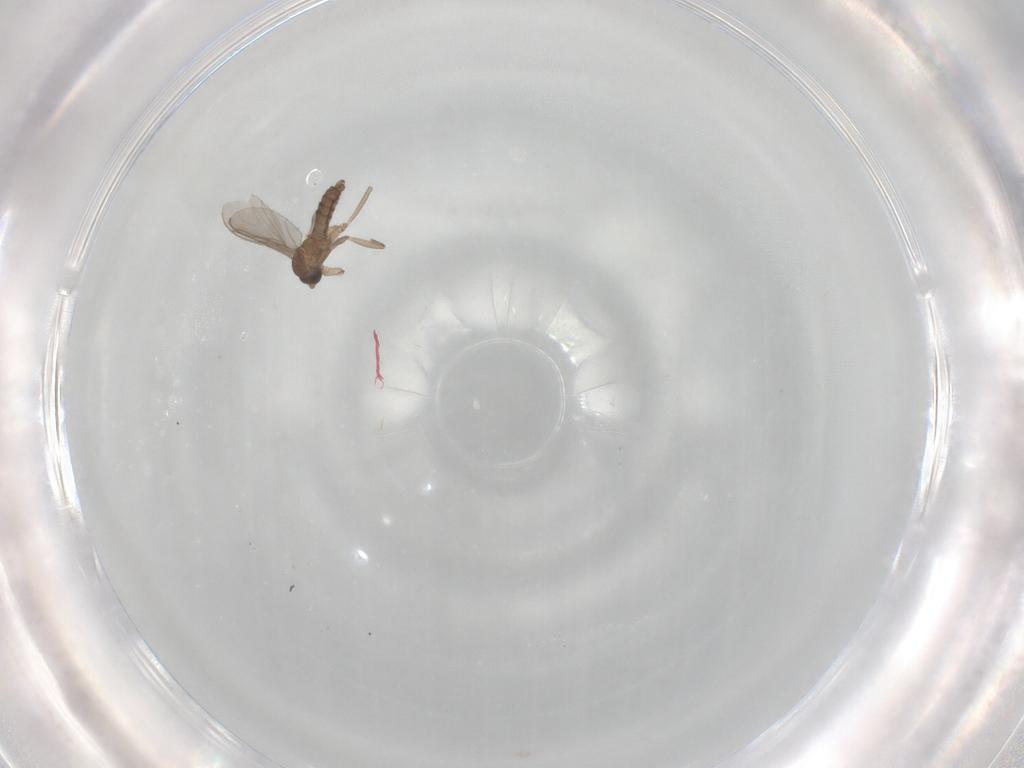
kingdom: Animalia
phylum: Arthropoda
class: Insecta
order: Diptera
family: Sciaridae
